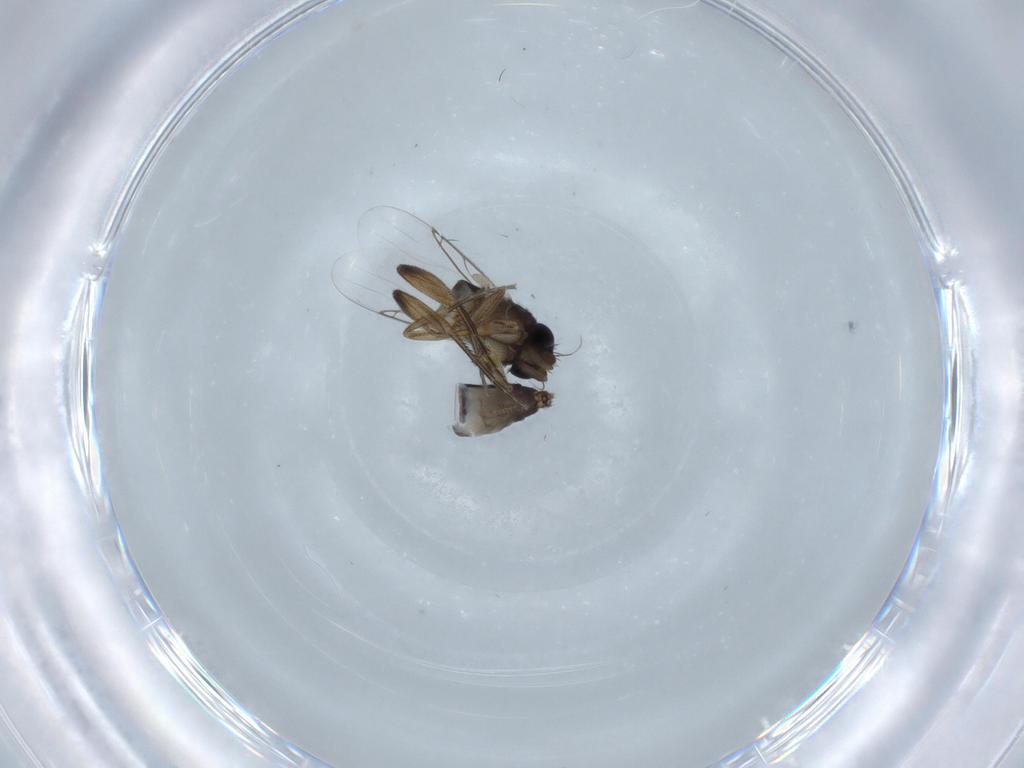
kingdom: Animalia
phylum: Arthropoda
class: Insecta
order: Diptera
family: Phoridae
